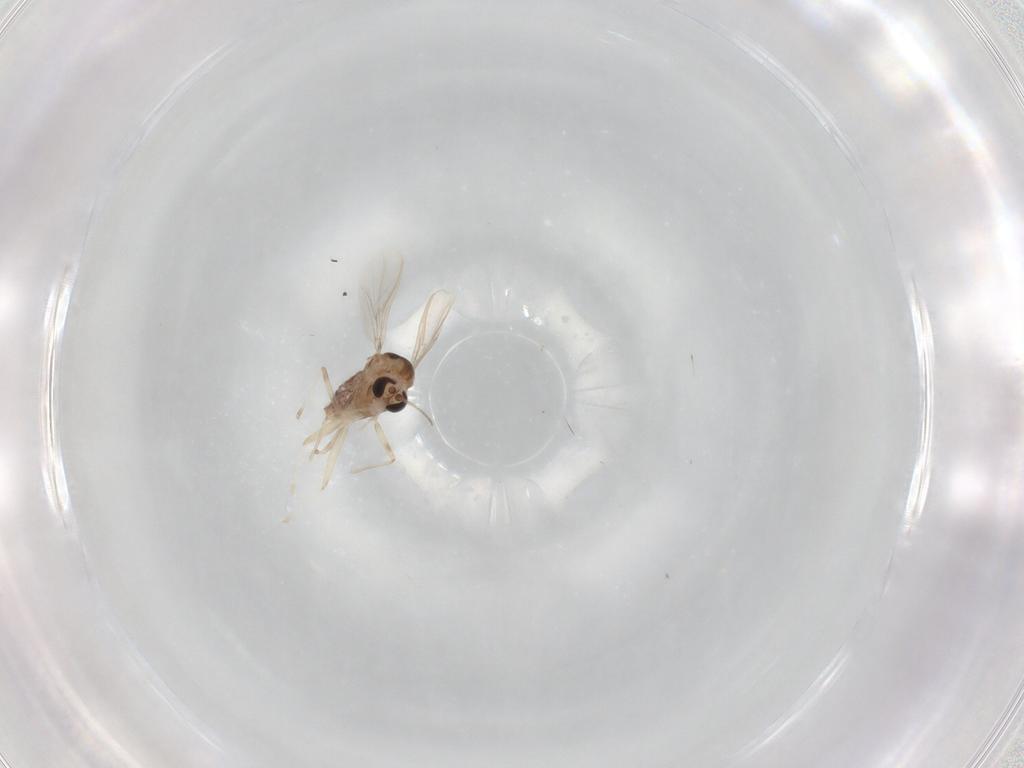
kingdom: Animalia
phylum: Arthropoda
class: Insecta
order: Diptera
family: Chironomidae
